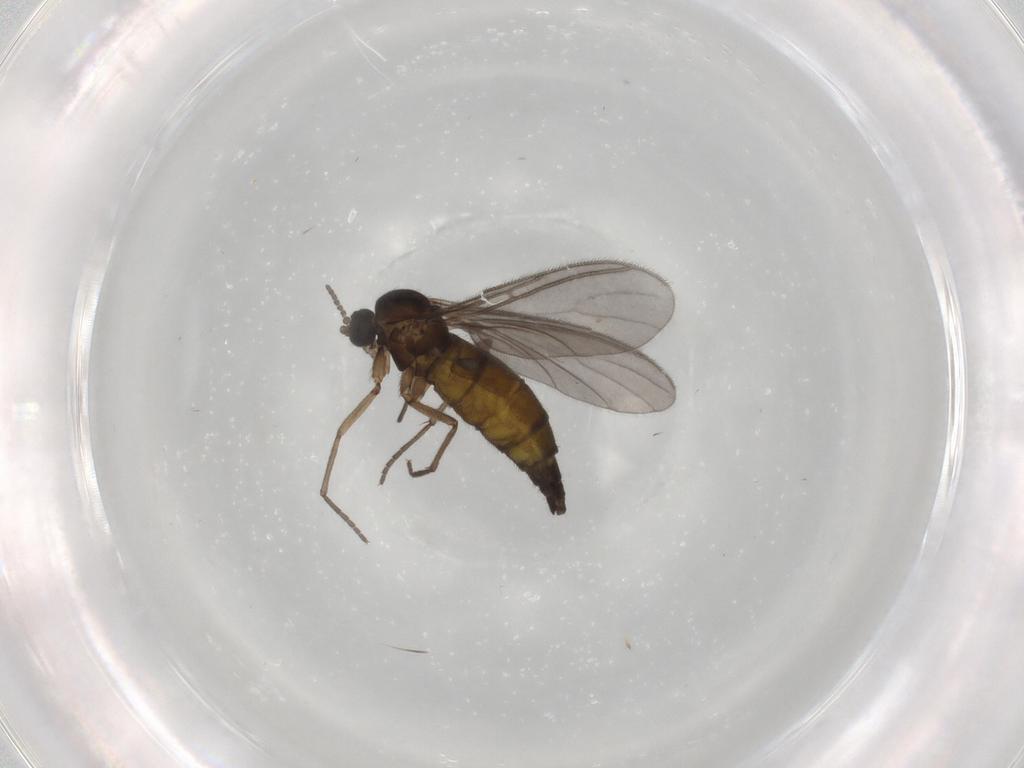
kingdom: Animalia
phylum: Arthropoda
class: Insecta
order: Diptera
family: Sciaridae
